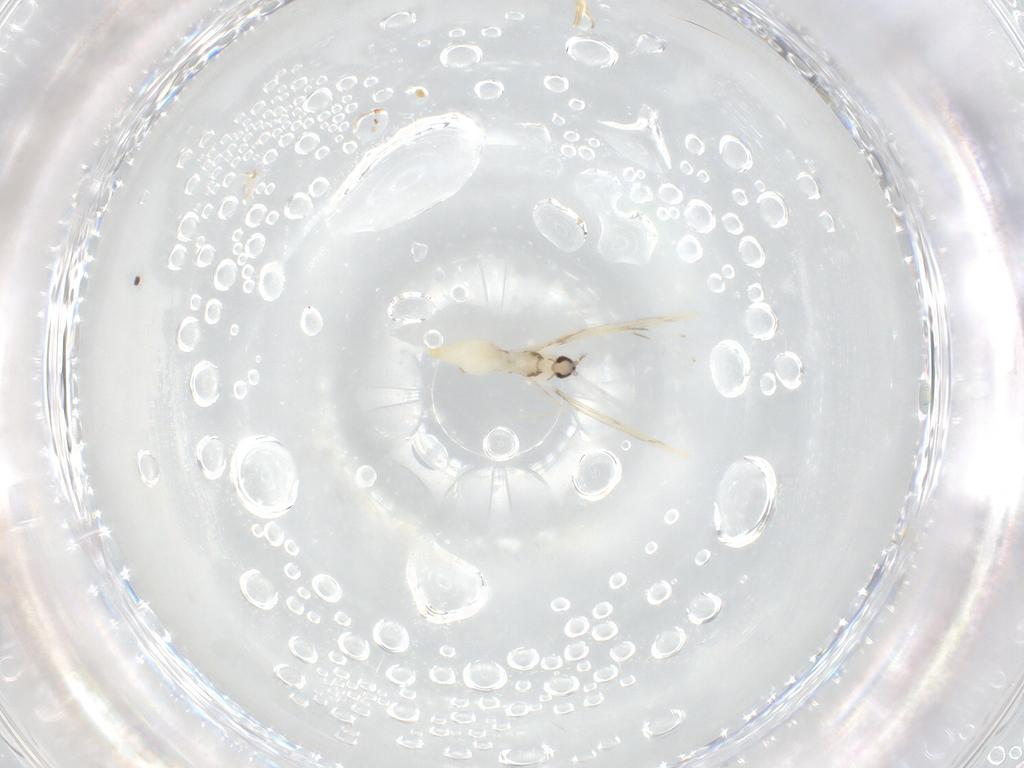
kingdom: Animalia
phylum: Arthropoda
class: Insecta
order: Diptera
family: Cecidomyiidae
